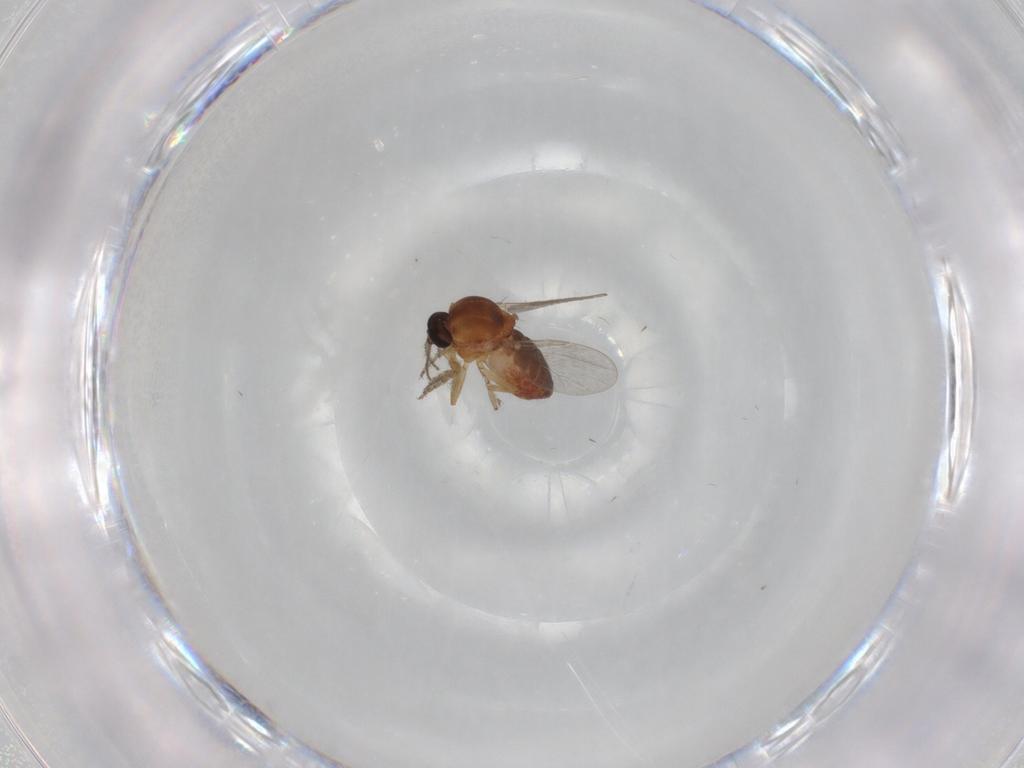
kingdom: Animalia
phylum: Arthropoda
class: Insecta
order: Diptera
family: Ceratopogonidae
